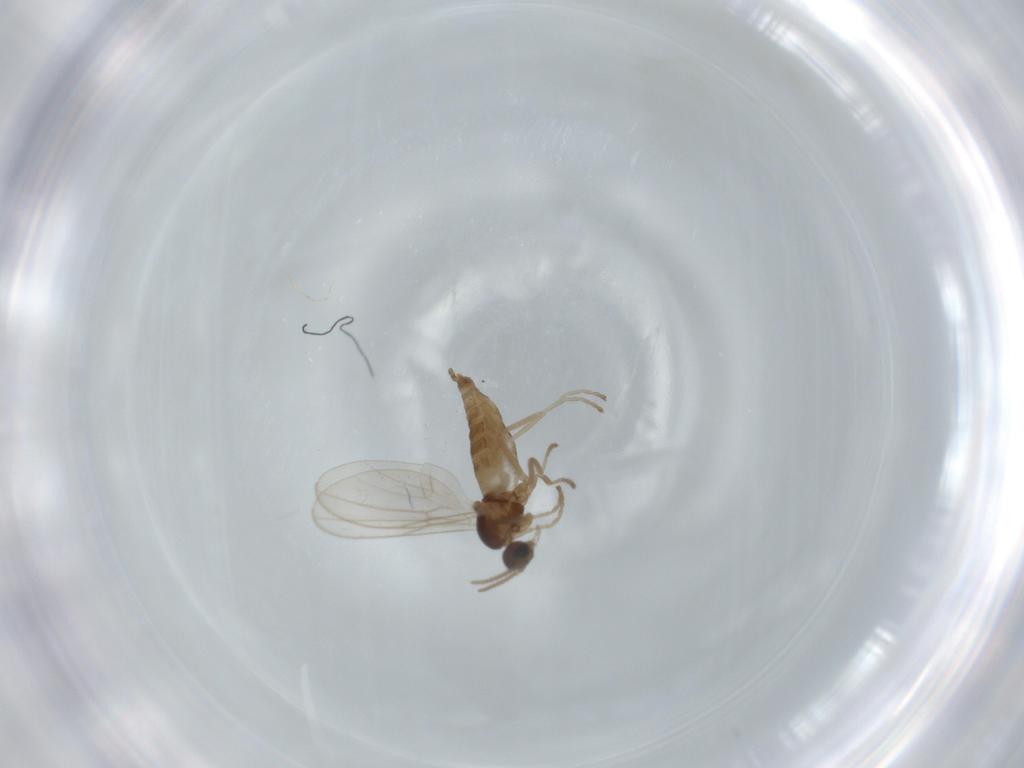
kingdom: Animalia
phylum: Arthropoda
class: Insecta
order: Diptera
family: Cecidomyiidae
